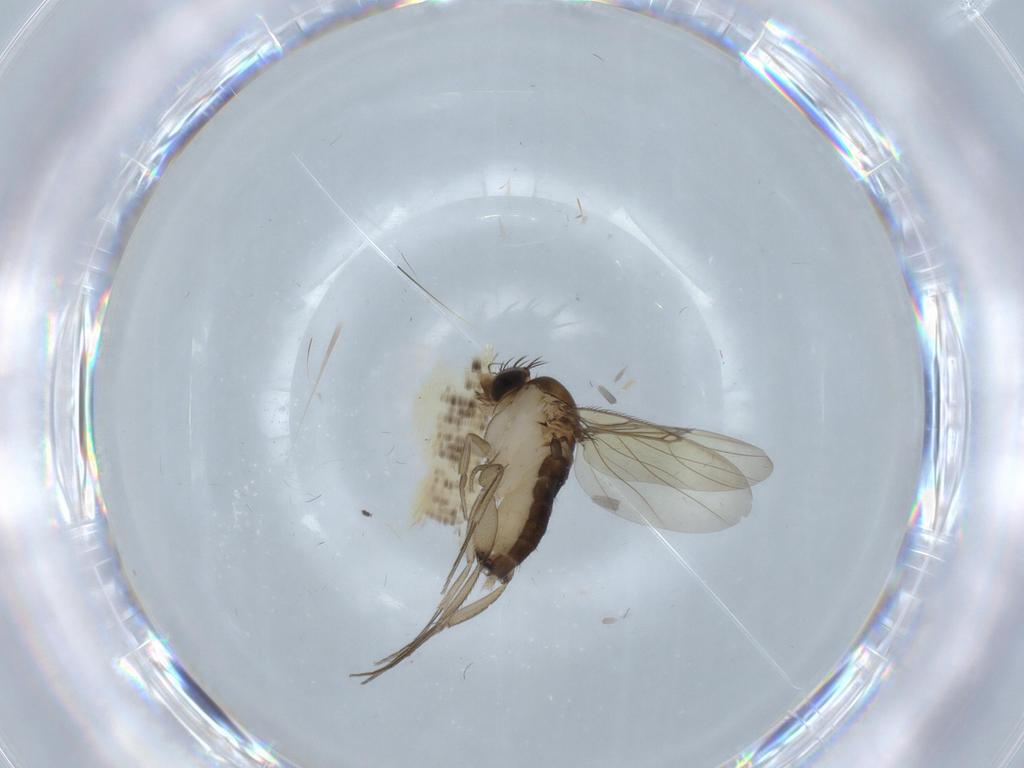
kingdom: Animalia
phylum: Arthropoda
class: Insecta
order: Diptera
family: Phoridae
